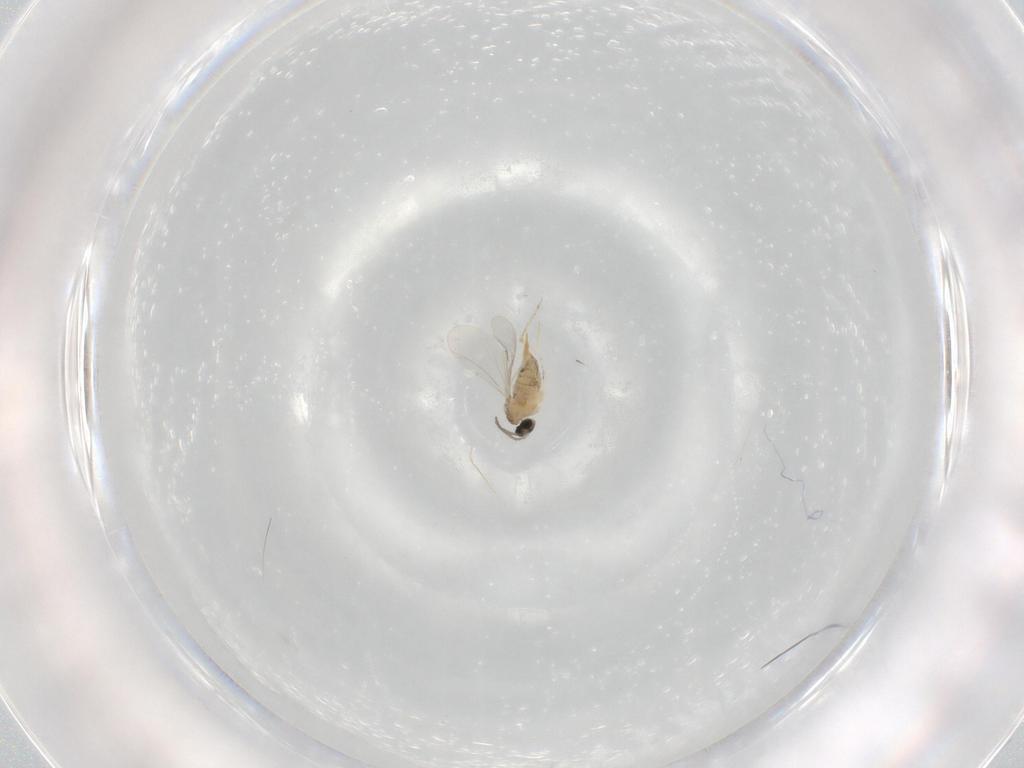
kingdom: Animalia
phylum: Arthropoda
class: Insecta
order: Diptera
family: Cecidomyiidae
